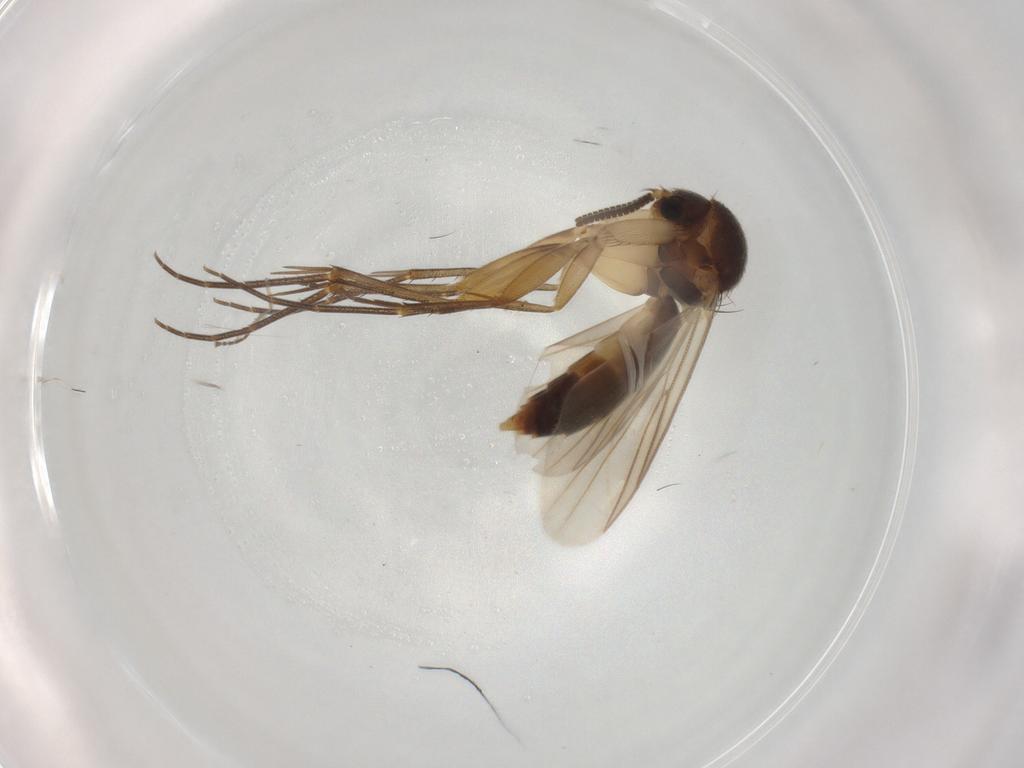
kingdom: Animalia
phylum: Arthropoda
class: Insecta
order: Diptera
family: Mycetophilidae
